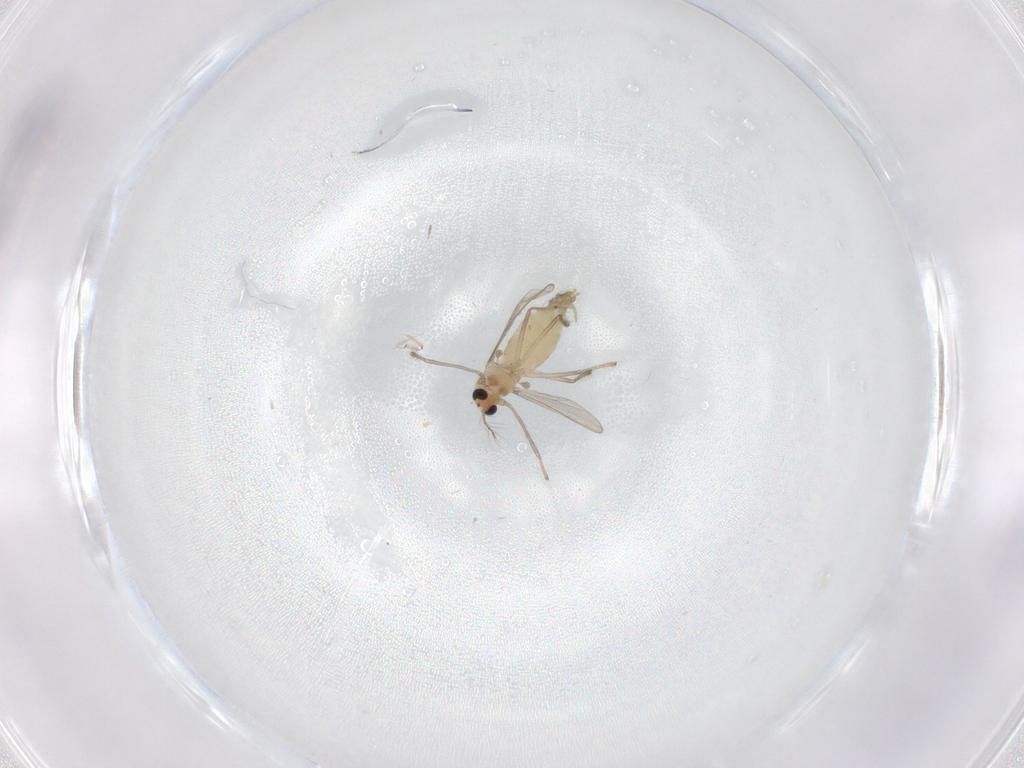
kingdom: Animalia
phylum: Arthropoda
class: Insecta
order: Diptera
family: Chironomidae
